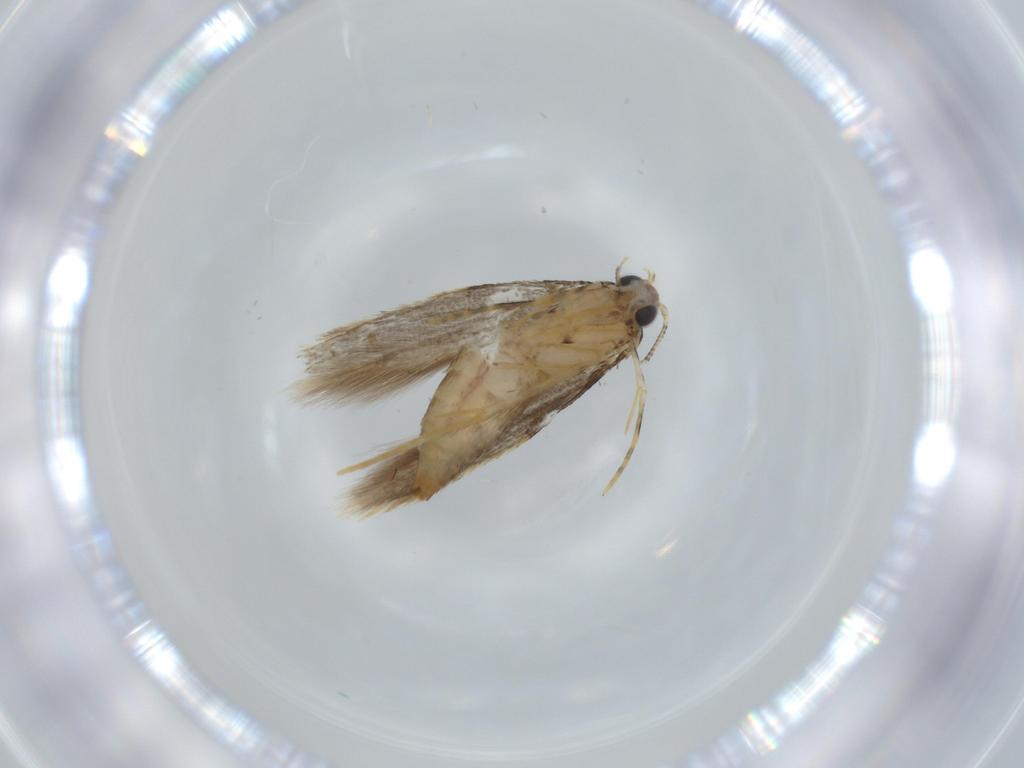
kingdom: Animalia
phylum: Arthropoda
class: Insecta
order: Lepidoptera
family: Tineidae
